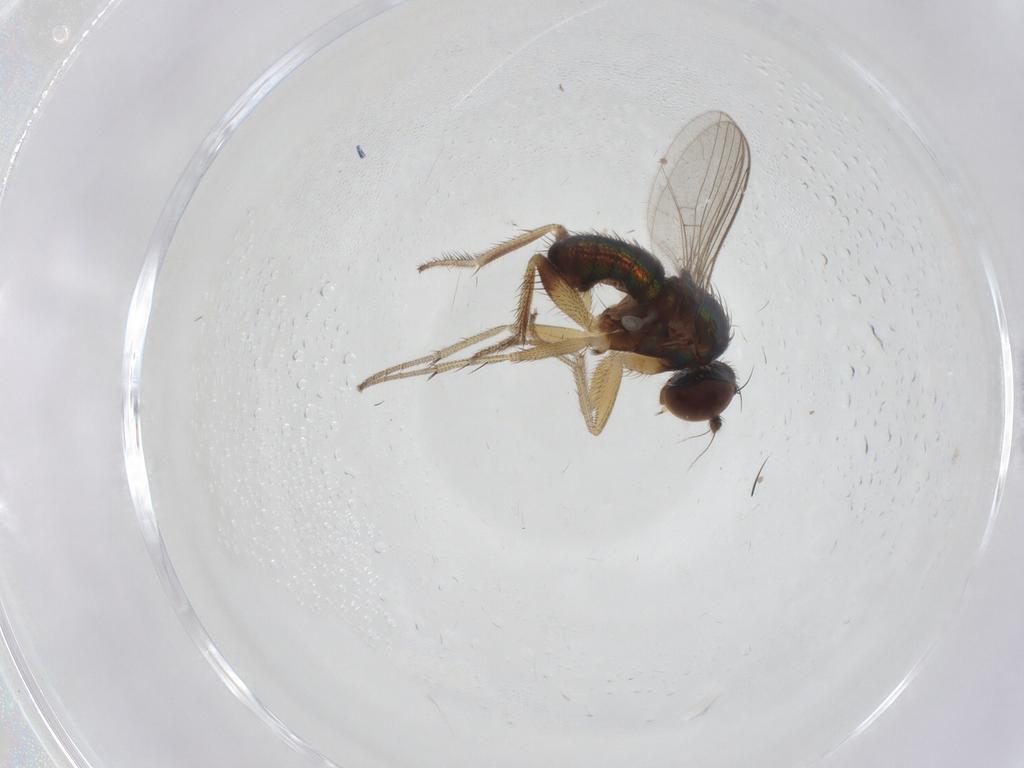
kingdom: Animalia
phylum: Arthropoda
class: Insecta
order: Diptera
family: Dolichopodidae
